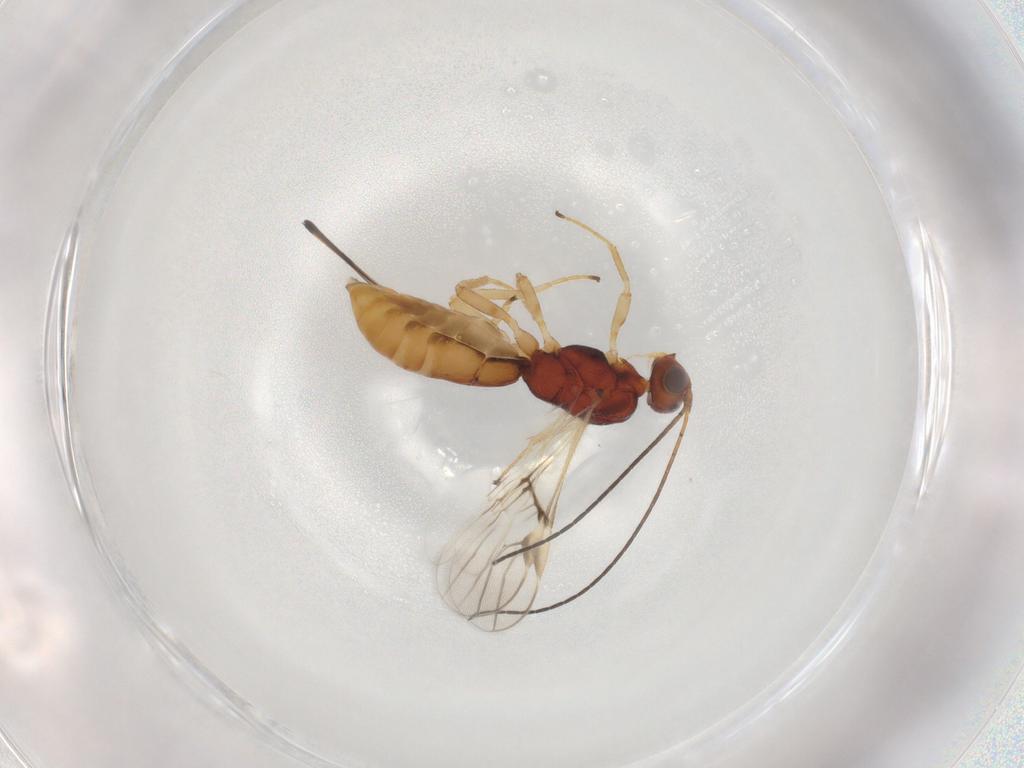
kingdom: Animalia
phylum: Arthropoda
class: Insecta
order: Hymenoptera
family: Braconidae
